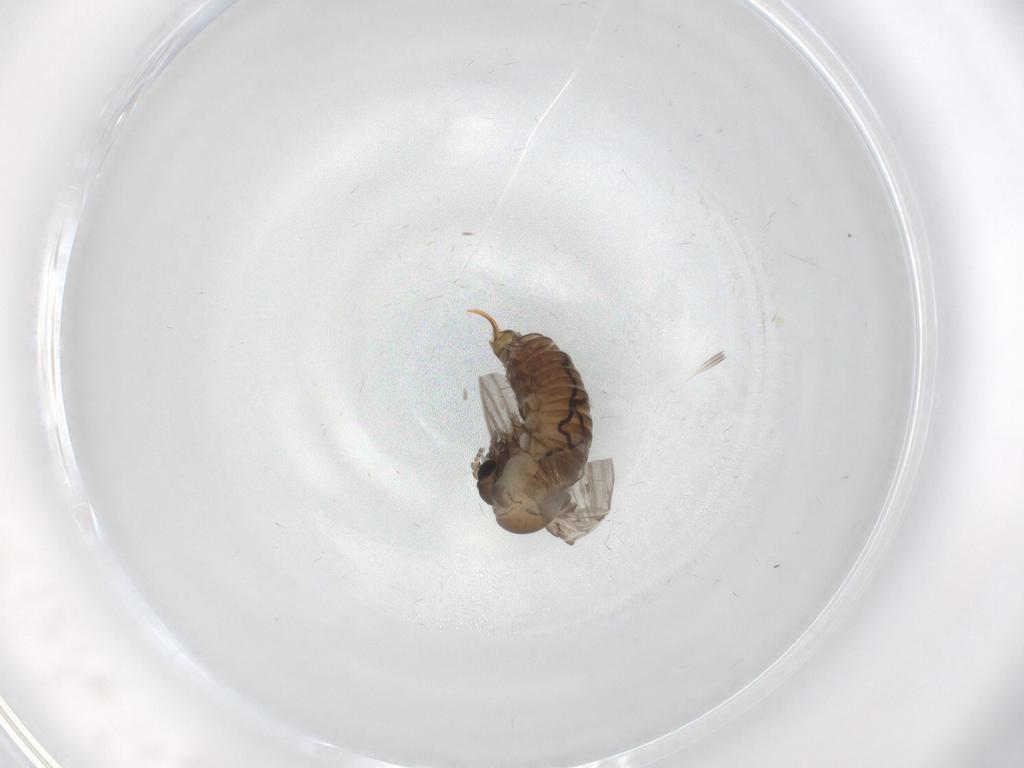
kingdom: Animalia
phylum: Arthropoda
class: Insecta
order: Diptera
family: Psychodidae
